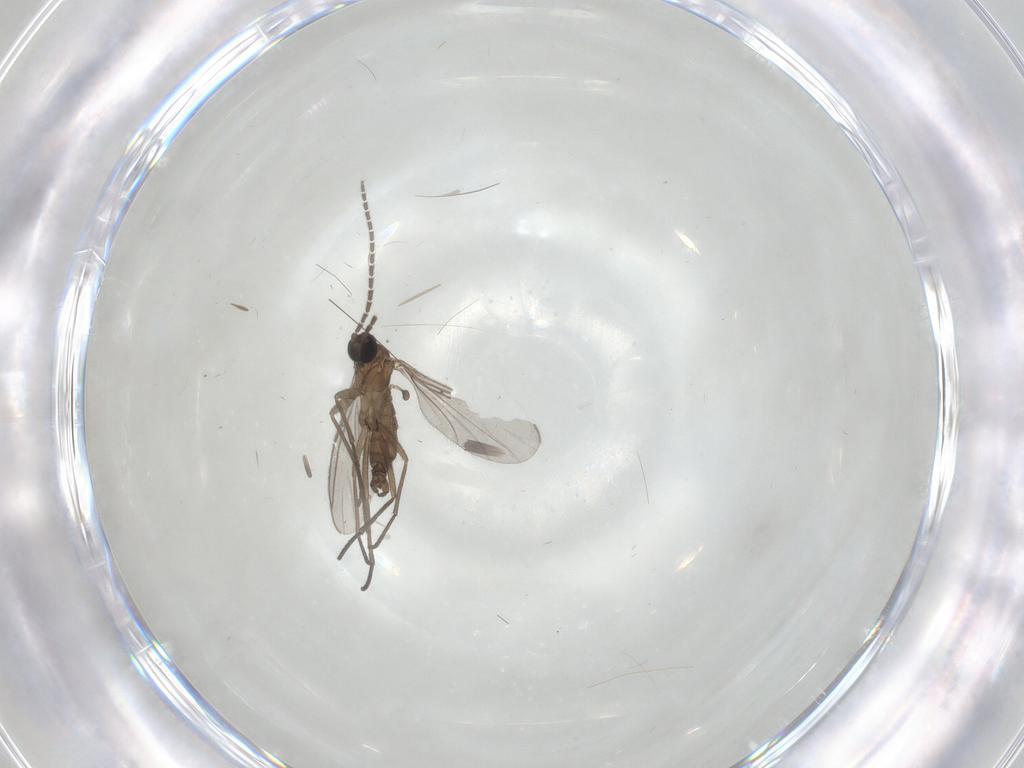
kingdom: Animalia
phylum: Arthropoda
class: Insecta
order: Diptera
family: Sciaridae
